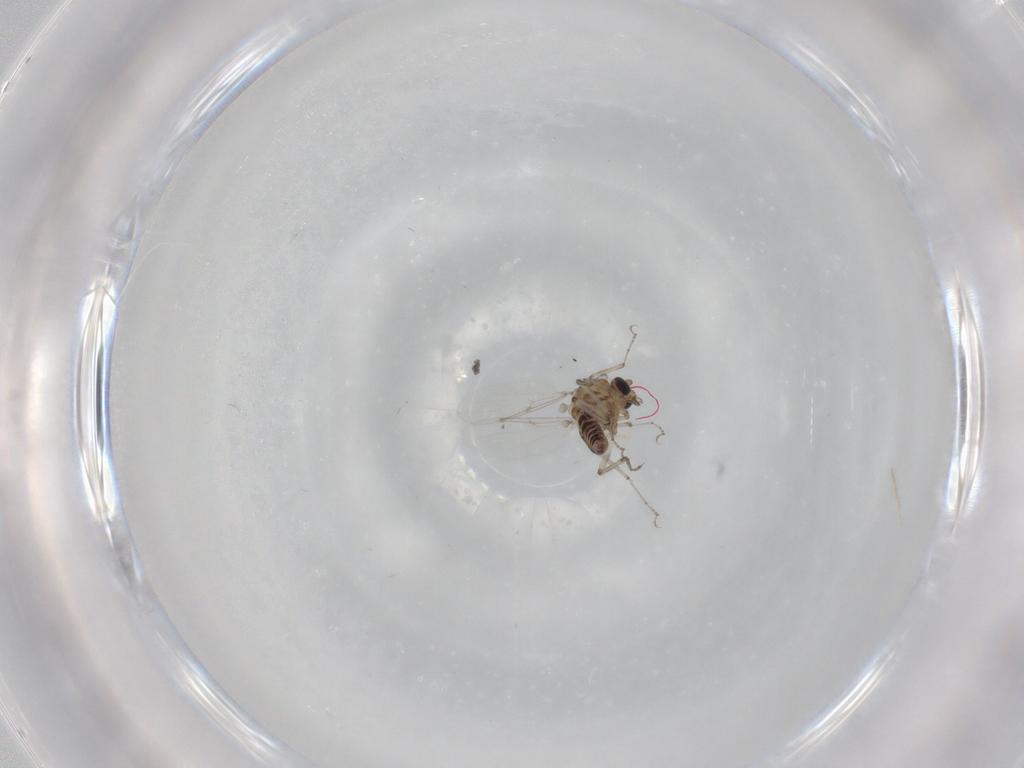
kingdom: Animalia
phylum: Arthropoda
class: Insecta
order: Diptera
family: Ceratopogonidae
